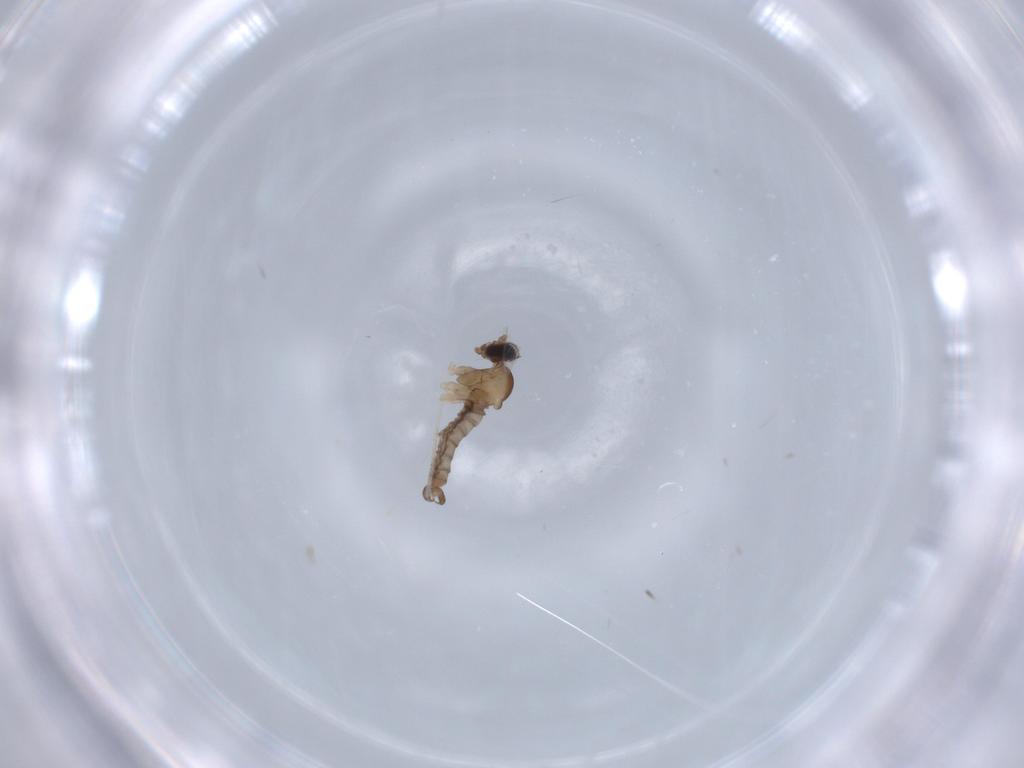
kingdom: Animalia
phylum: Arthropoda
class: Insecta
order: Diptera
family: Cecidomyiidae
